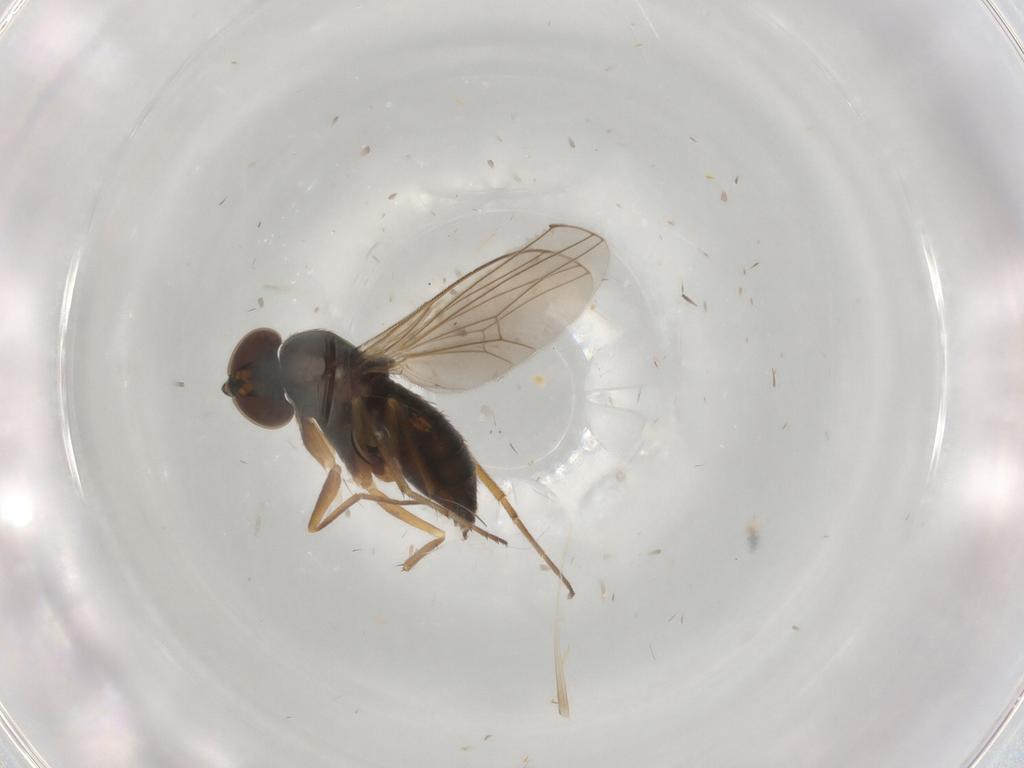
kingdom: Animalia
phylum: Arthropoda
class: Insecta
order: Diptera
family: Dolichopodidae
